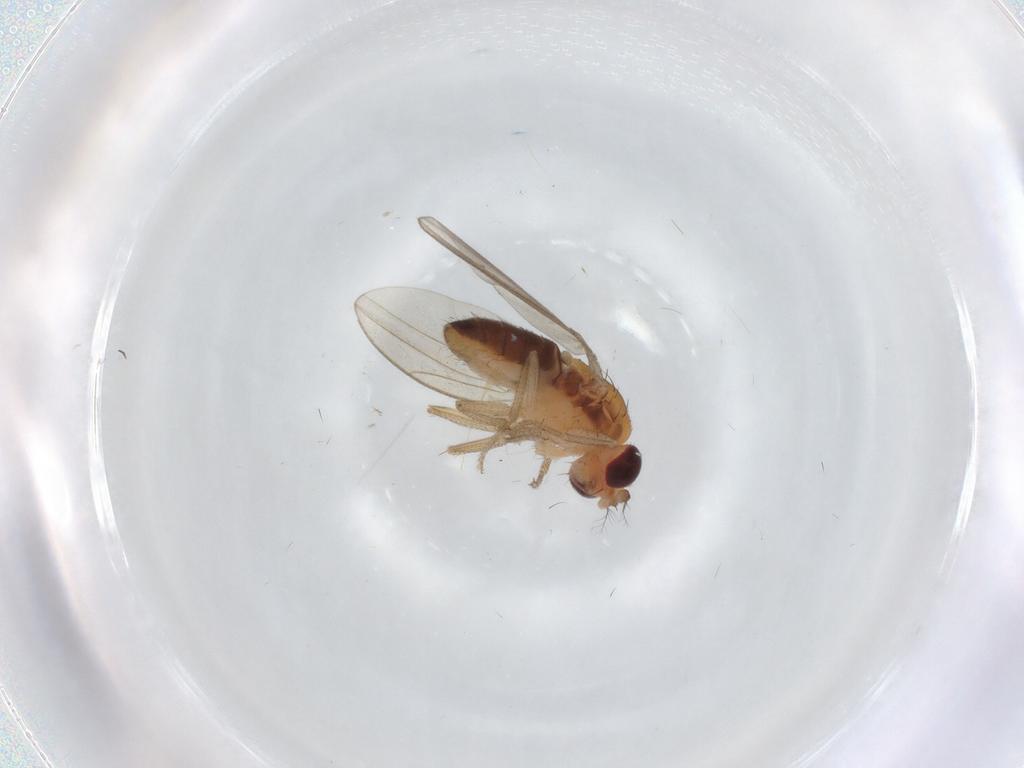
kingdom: Animalia
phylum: Arthropoda
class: Insecta
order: Diptera
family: Drosophilidae
